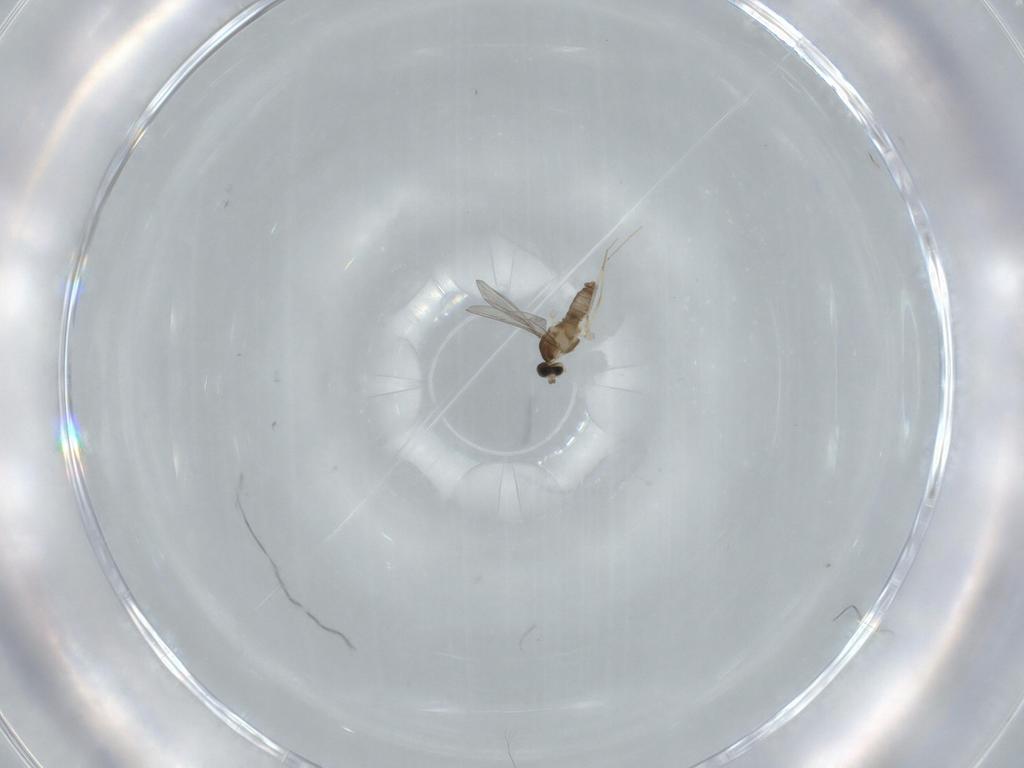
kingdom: Animalia
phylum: Arthropoda
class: Insecta
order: Diptera
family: Cecidomyiidae
